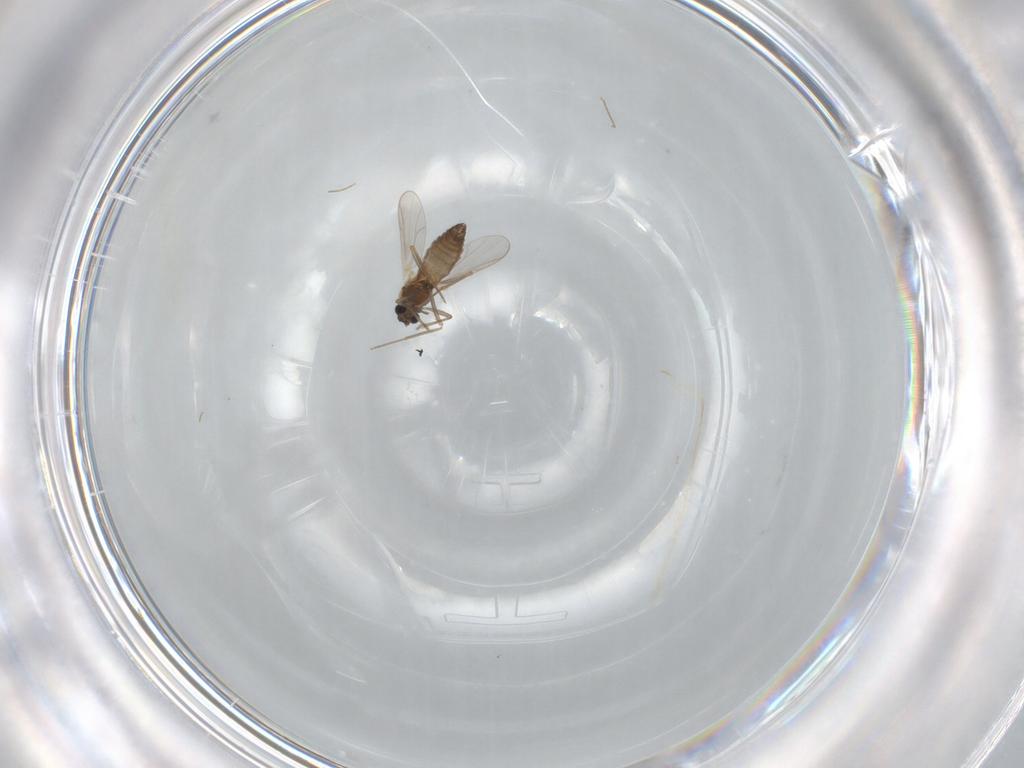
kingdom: Animalia
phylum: Arthropoda
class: Insecta
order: Diptera
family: Chironomidae
